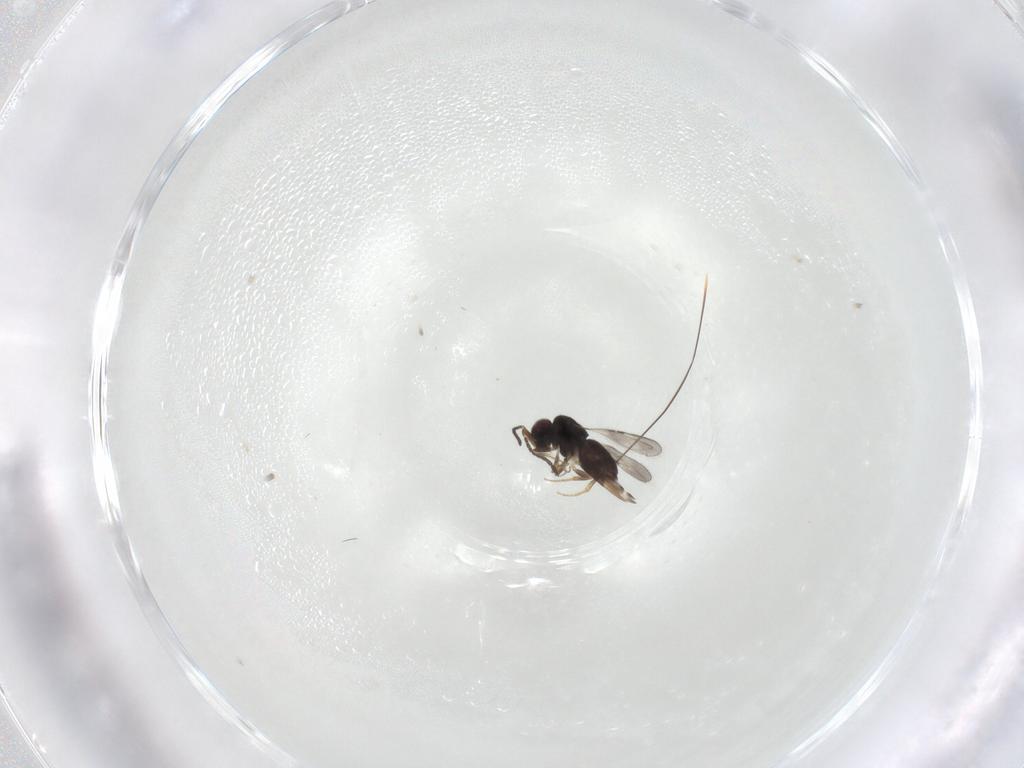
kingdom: Animalia
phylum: Arthropoda
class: Insecta
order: Hymenoptera
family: Ceraphronidae
